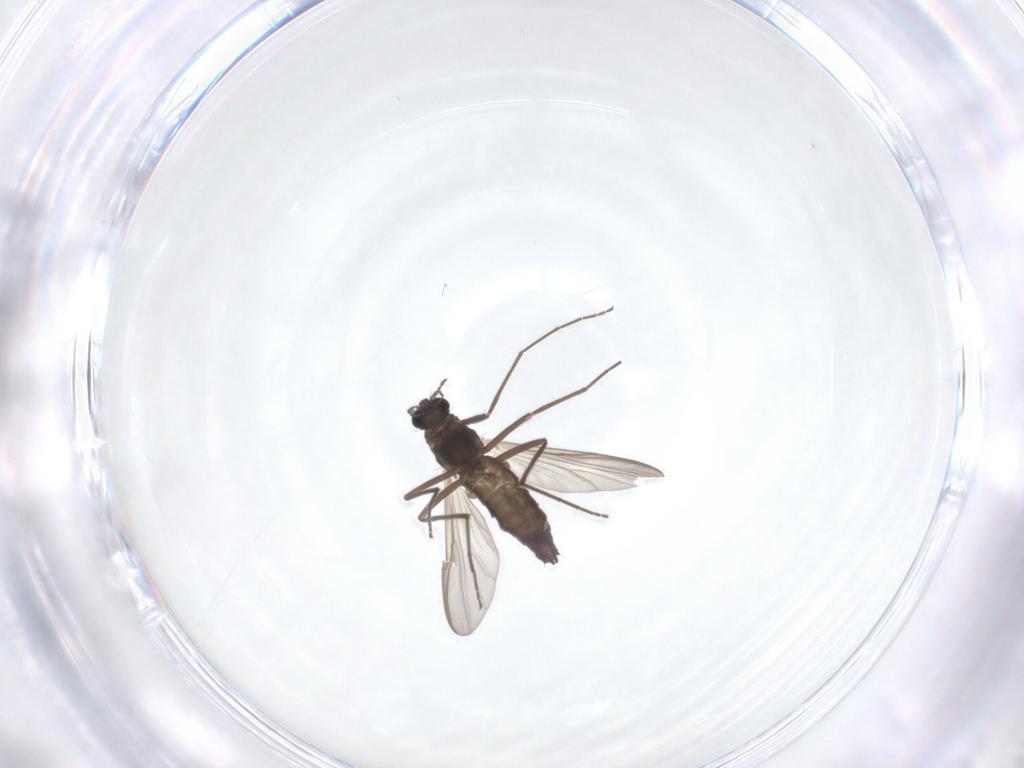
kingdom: Animalia
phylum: Arthropoda
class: Insecta
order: Diptera
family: Chironomidae
